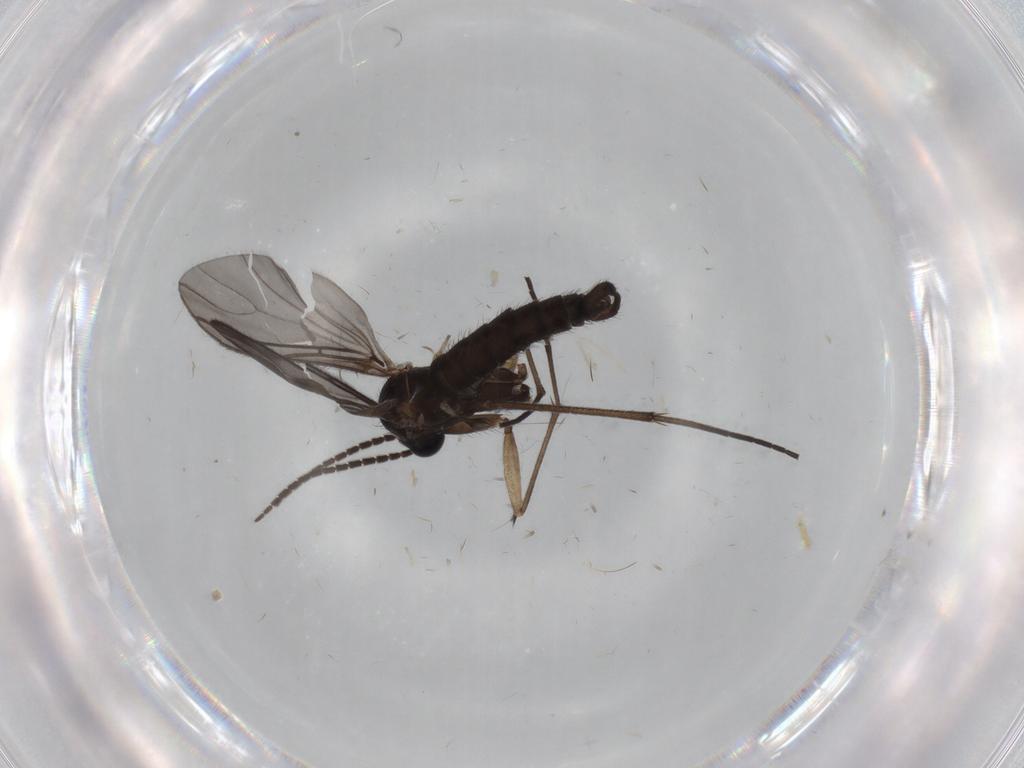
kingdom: Animalia
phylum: Arthropoda
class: Insecta
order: Diptera
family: Sciaridae
